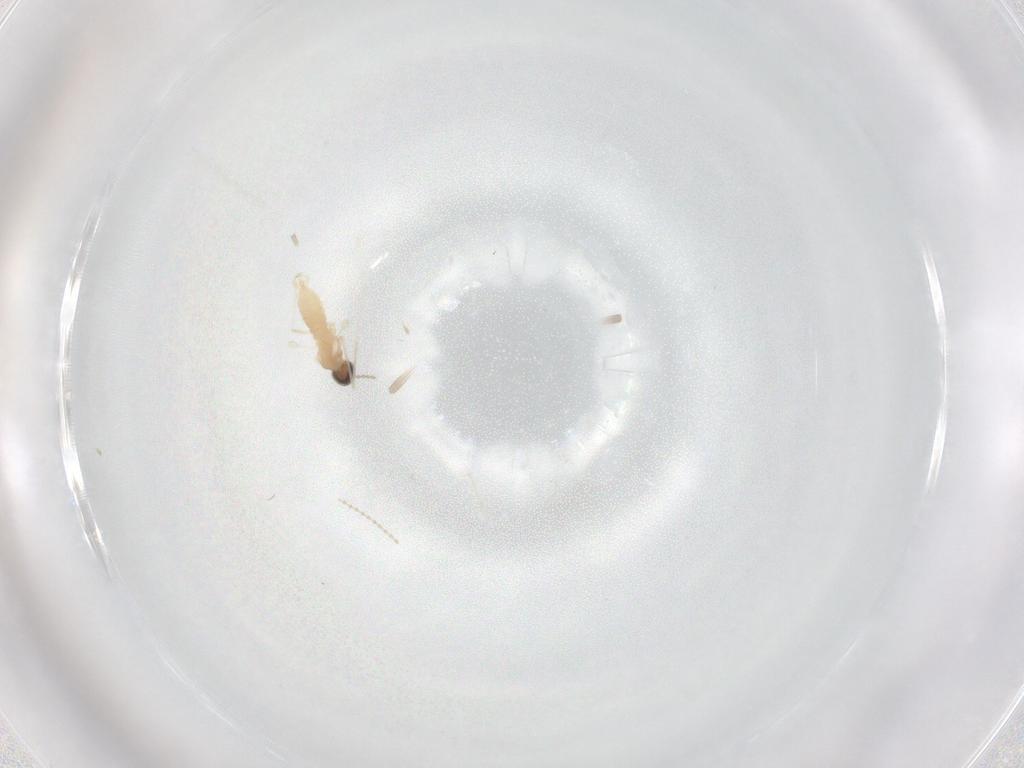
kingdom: Animalia
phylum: Arthropoda
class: Insecta
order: Diptera
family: Cecidomyiidae
